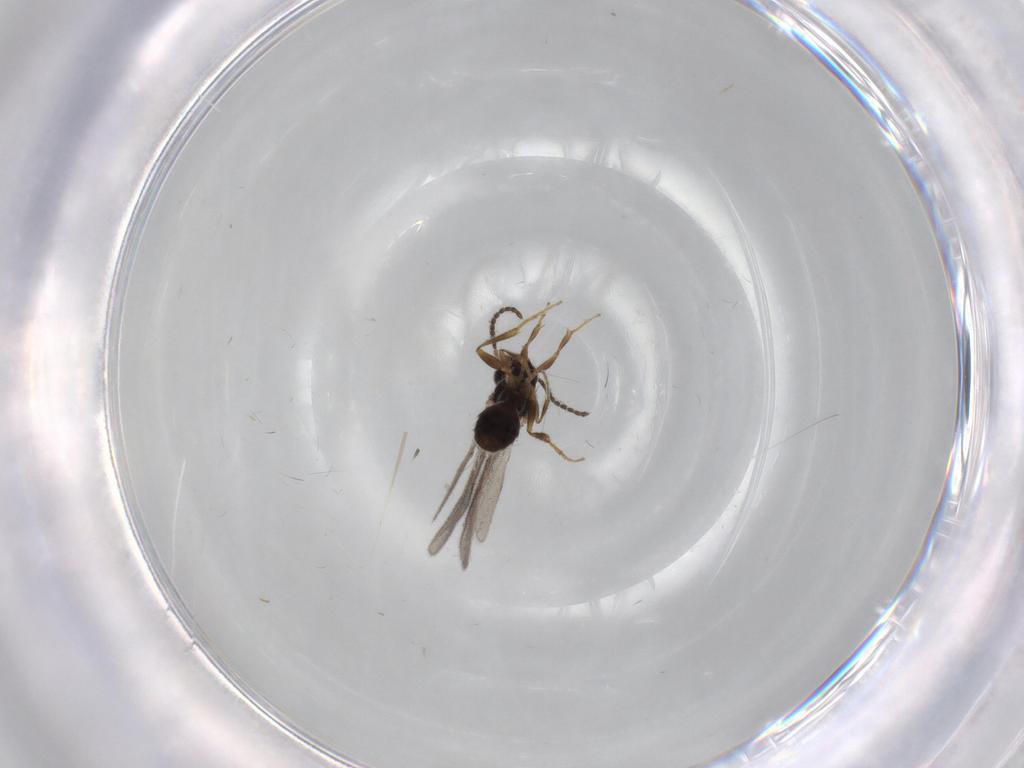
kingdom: Animalia
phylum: Arthropoda
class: Insecta
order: Hymenoptera
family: Bethylidae
